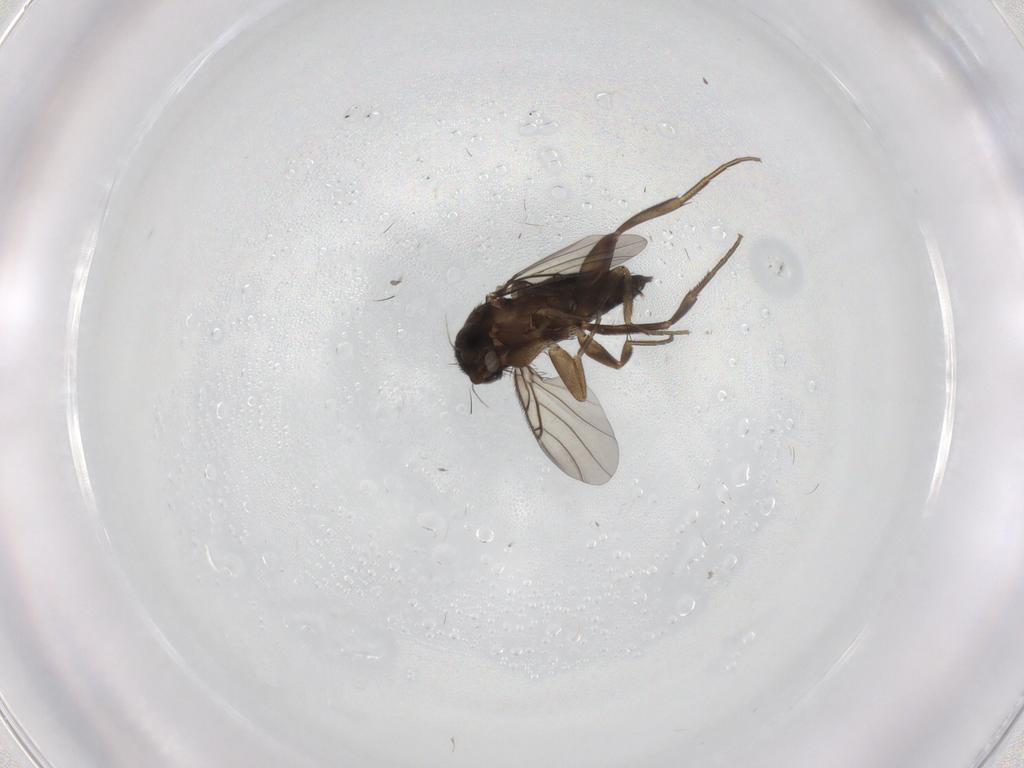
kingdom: Animalia
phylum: Arthropoda
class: Insecta
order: Diptera
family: Phoridae
